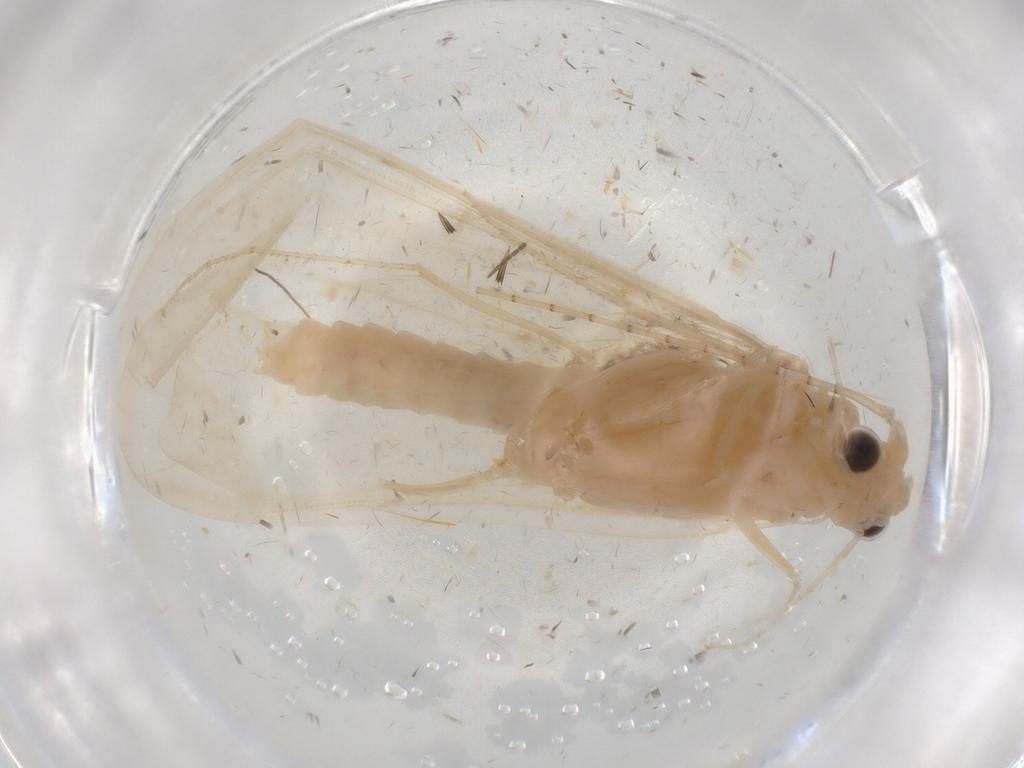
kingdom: Animalia
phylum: Arthropoda
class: Insecta
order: Trichoptera
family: Leptoceridae
